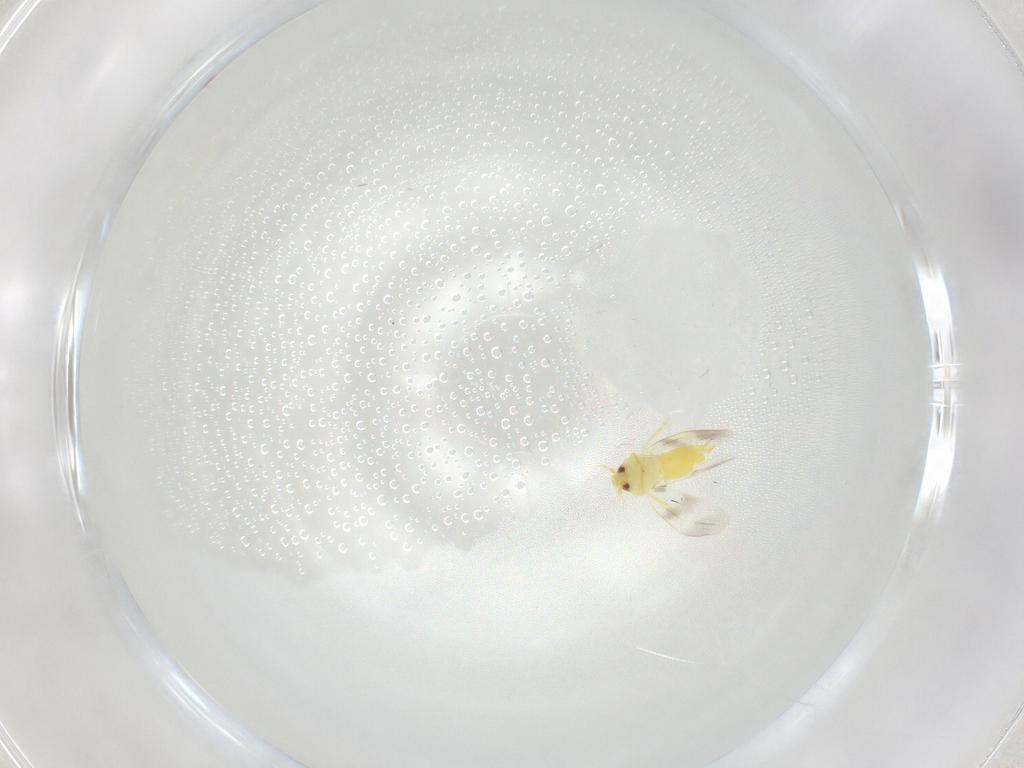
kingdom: Animalia
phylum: Arthropoda
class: Insecta
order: Hemiptera
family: Aleyrodidae
